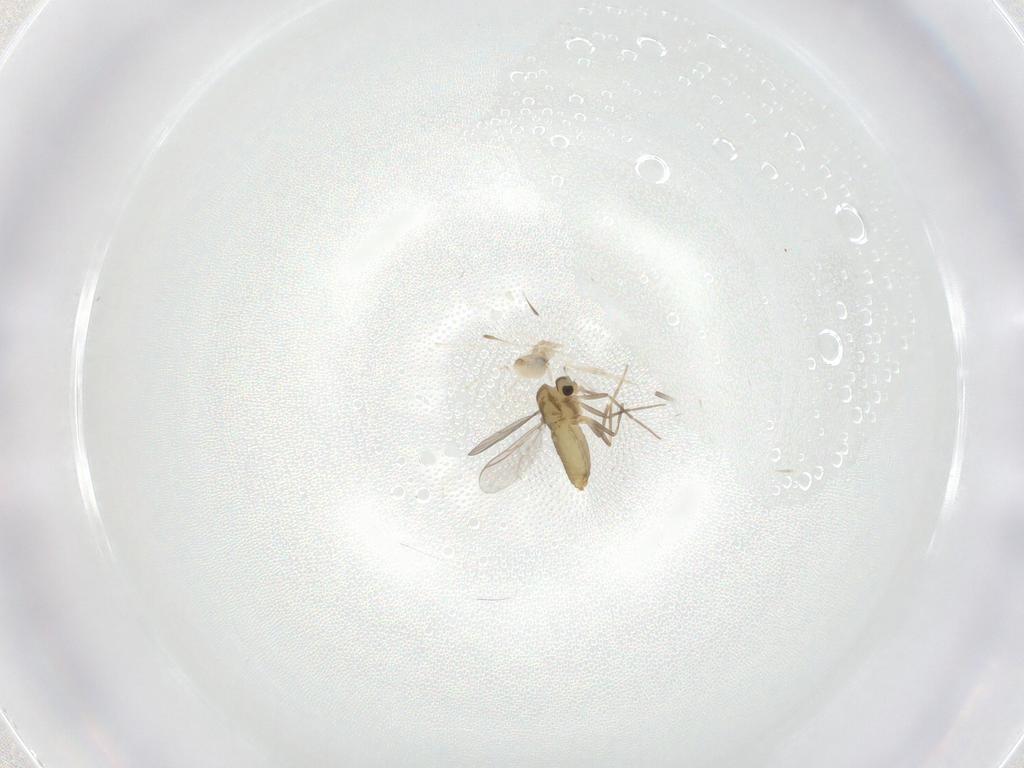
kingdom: Animalia
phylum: Arthropoda
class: Insecta
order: Diptera
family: Chironomidae
